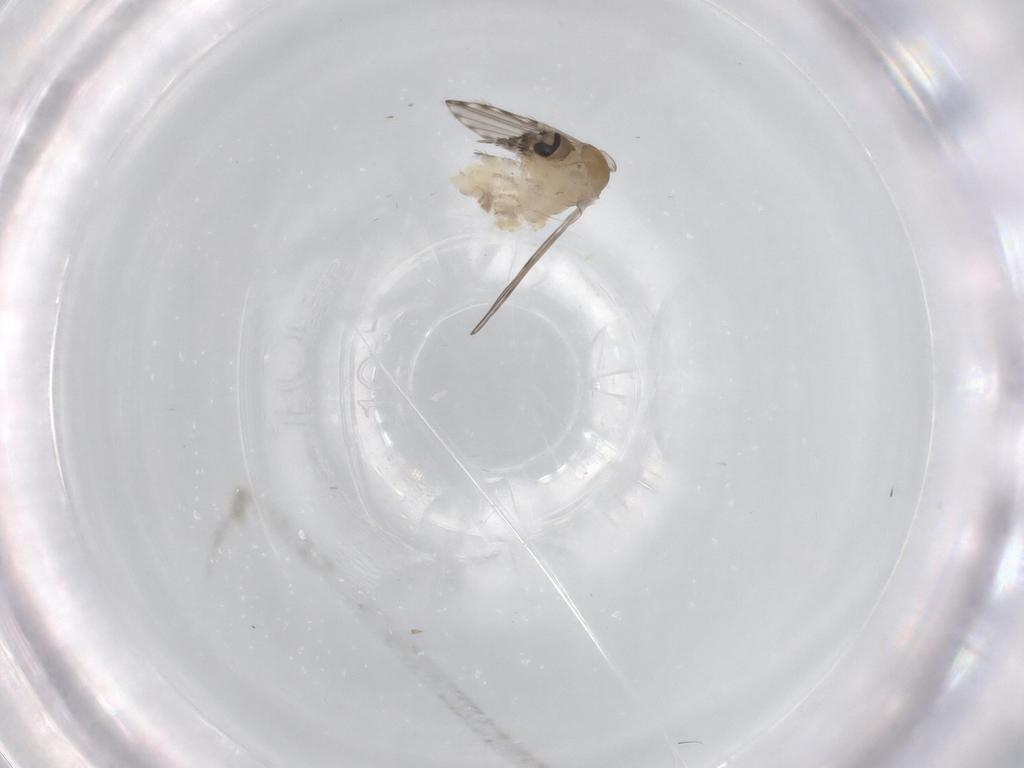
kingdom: Animalia
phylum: Arthropoda
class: Insecta
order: Diptera
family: Psychodidae
